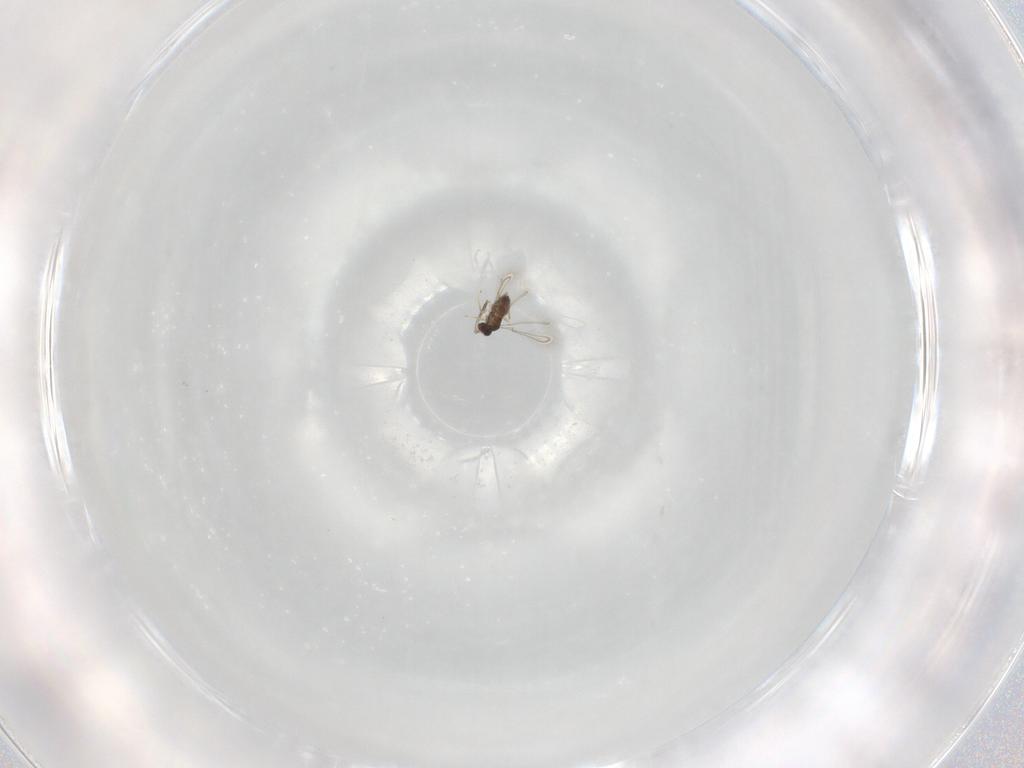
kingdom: Animalia
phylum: Arthropoda
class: Insecta
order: Hymenoptera
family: Mymaridae
